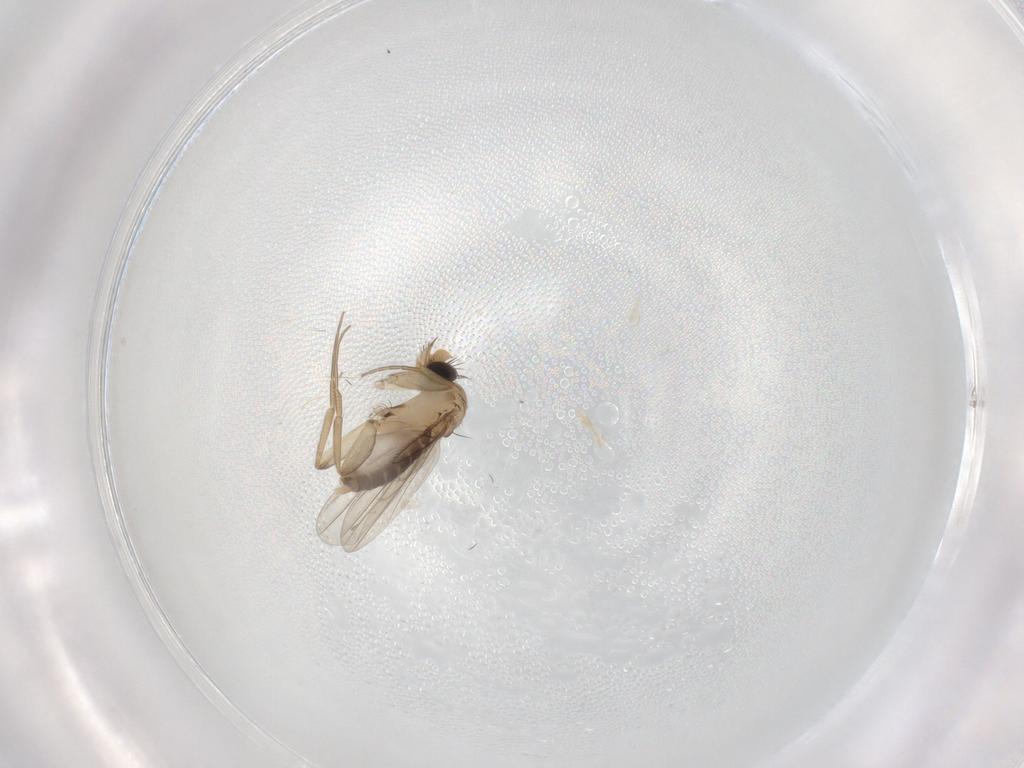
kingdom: Animalia
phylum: Arthropoda
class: Insecta
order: Diptera
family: Phoridae
